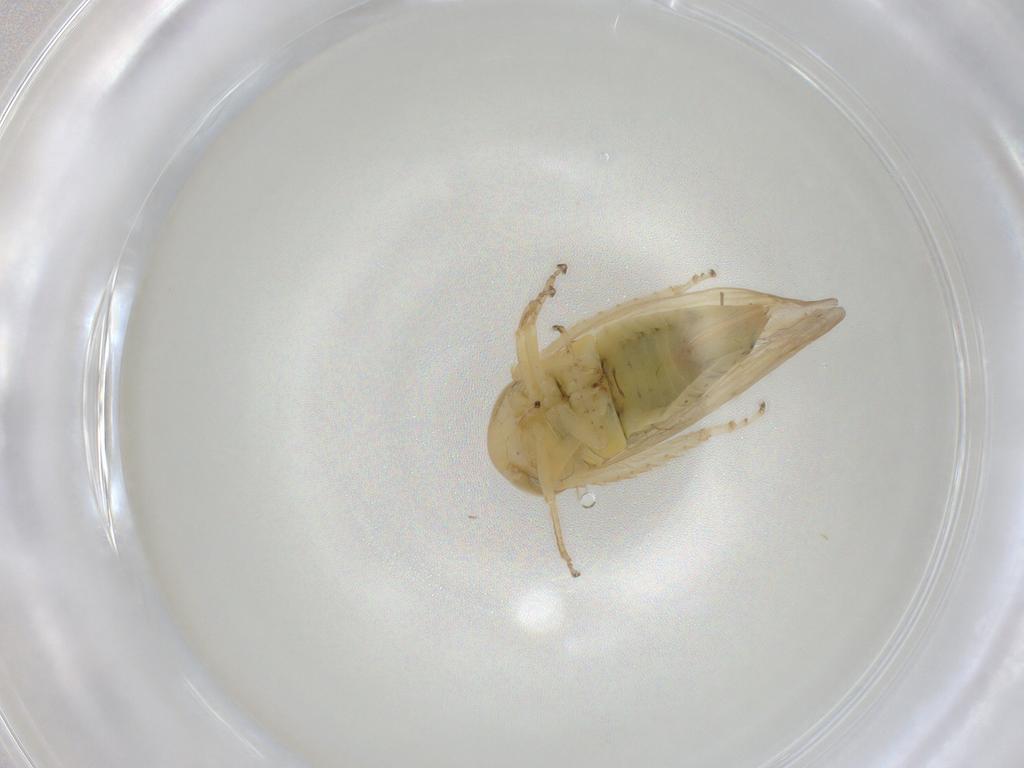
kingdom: Animalia
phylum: Arthropoda
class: Insecta
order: Hemiptera
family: Cicadellidae
